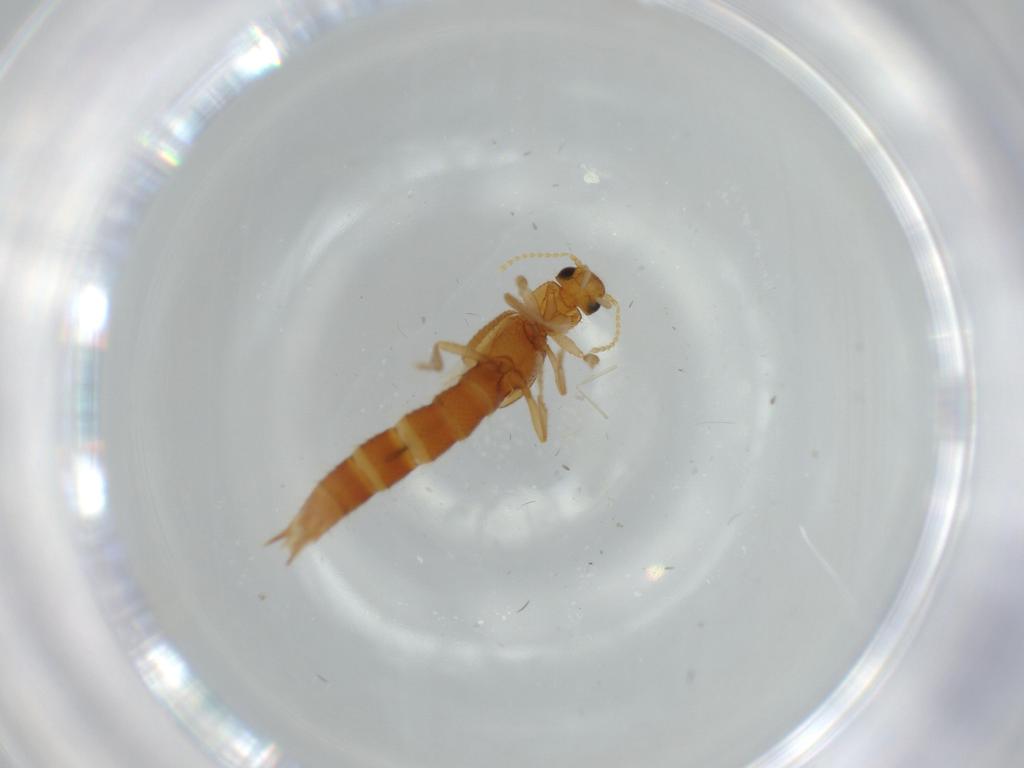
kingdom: Animalia
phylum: Arthropoda
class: Insecta
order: Coleoptera
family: Staphylinidae
